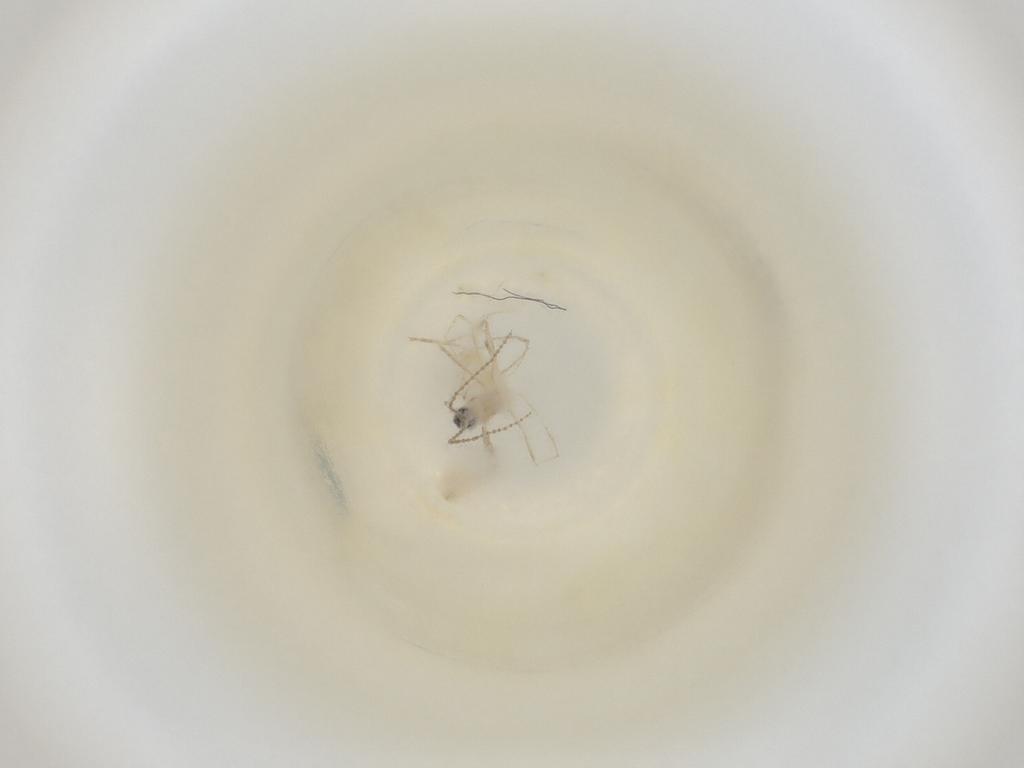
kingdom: Animalia
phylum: Arthropoda
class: Insecta
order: Diptera
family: Cecidomyiidae
